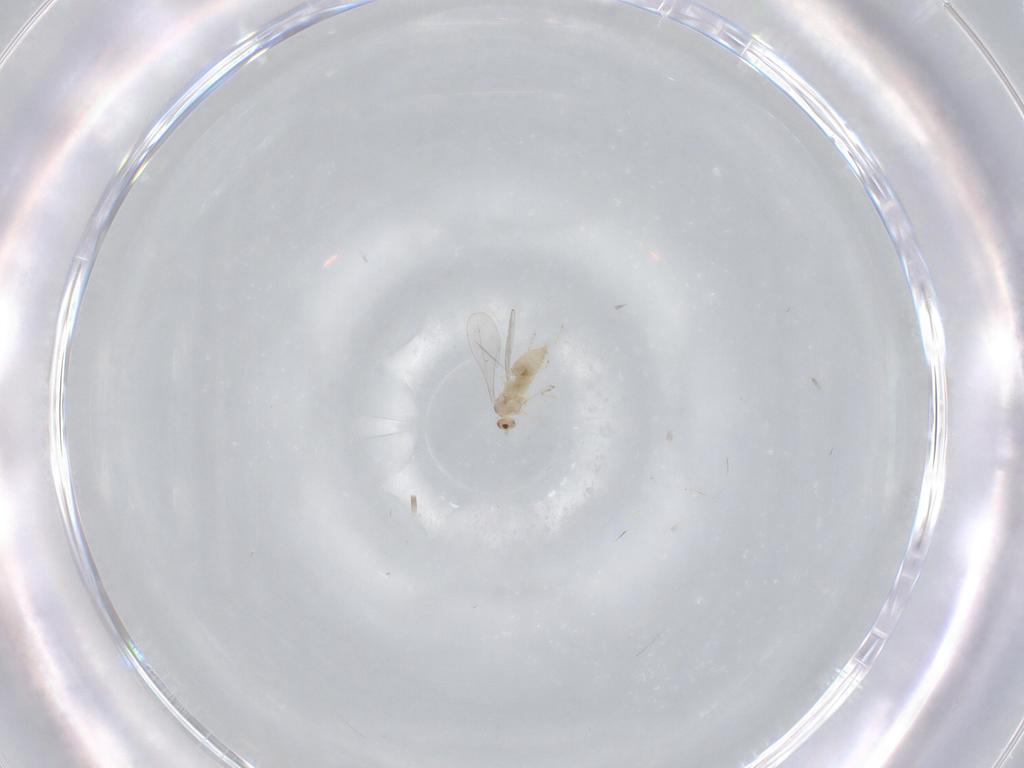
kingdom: Animalia
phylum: Arthropoda
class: Insecta
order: Diptera
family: Cecidomyiidae
